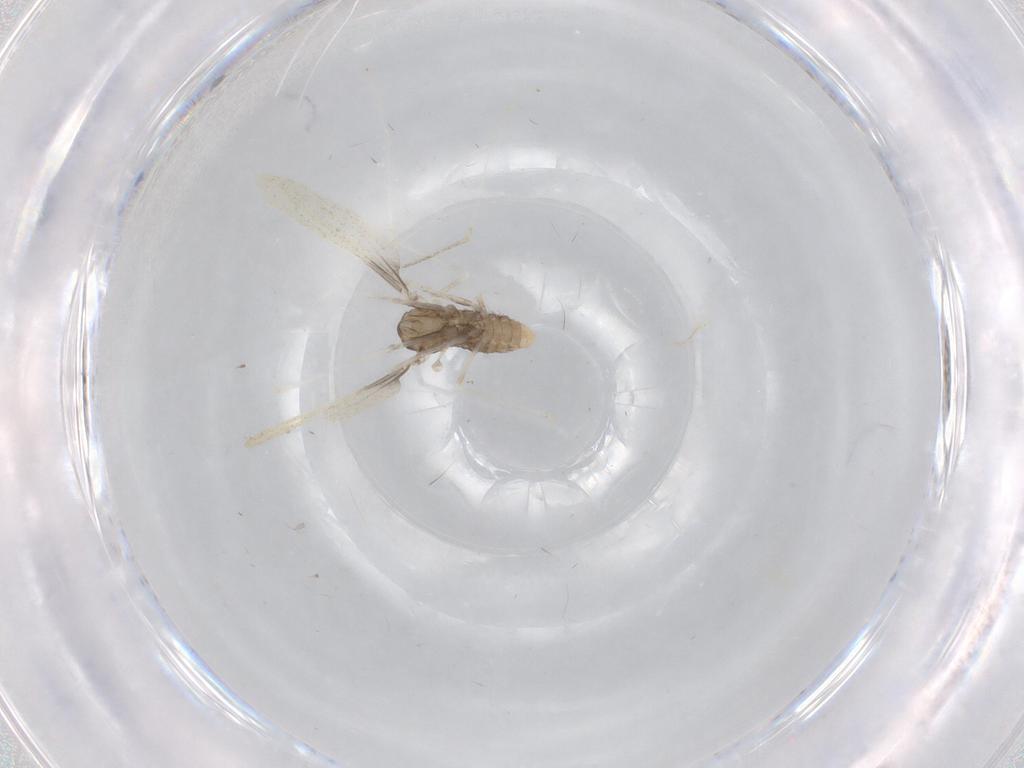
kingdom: Animalia
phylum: Arthropoda
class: Insecta
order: Diptera
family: Cecidomyiidae
